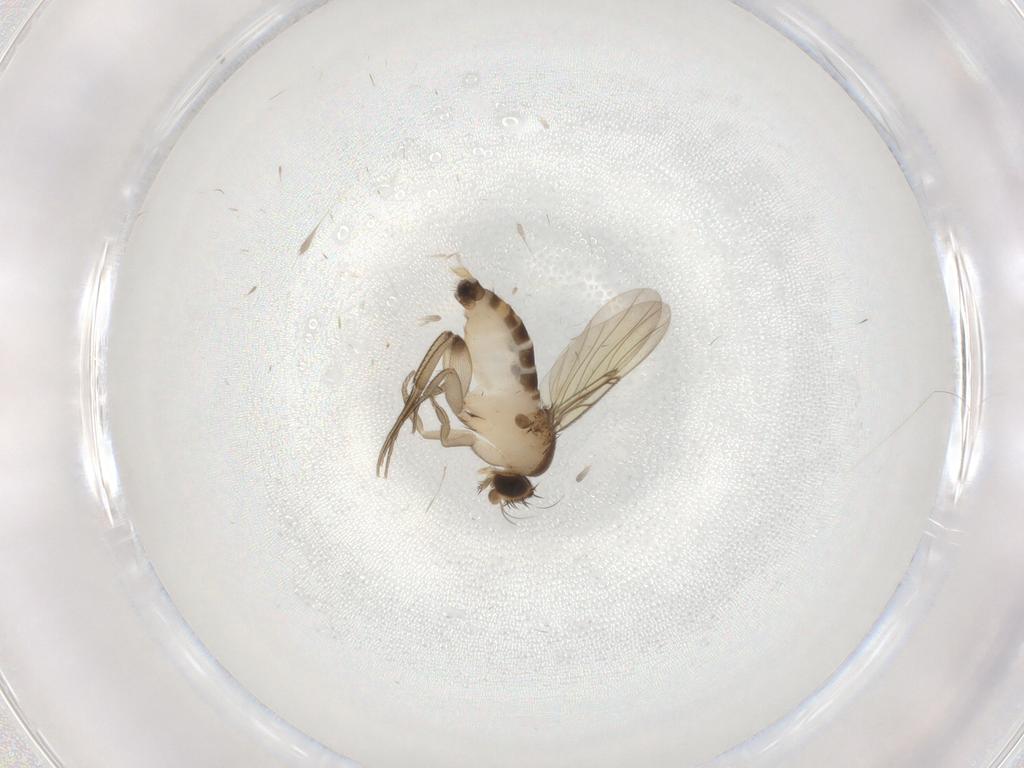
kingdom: Animalia
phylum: Arthropoda
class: Insecta
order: Diptera
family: Phoridae
